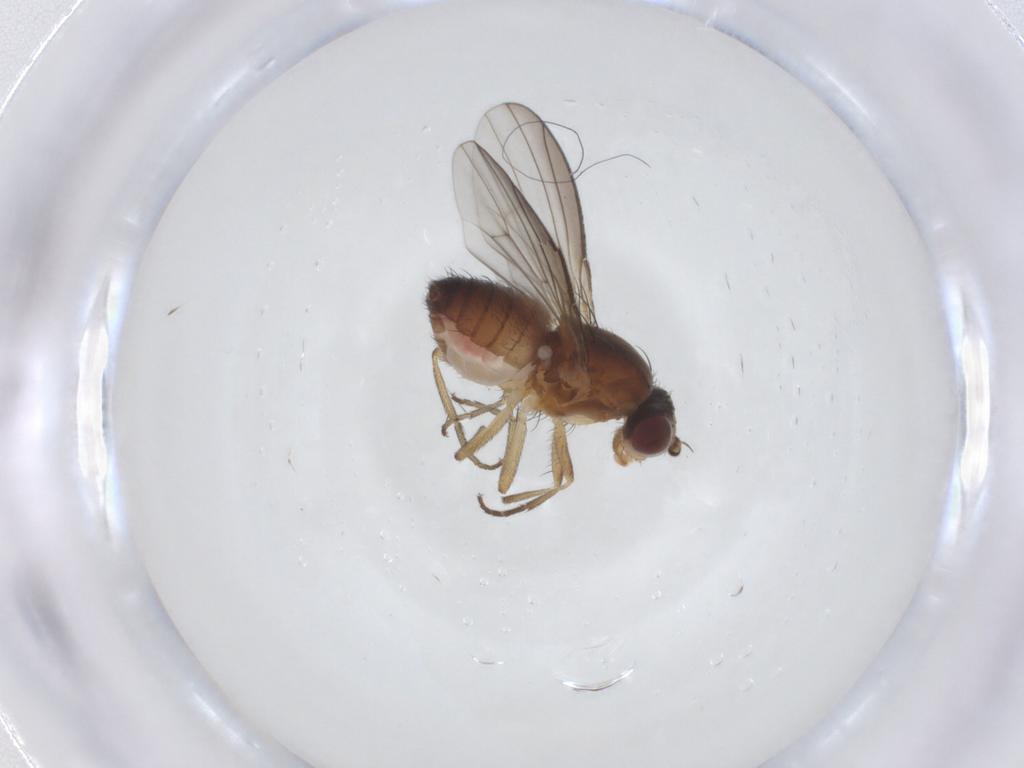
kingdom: Animalia
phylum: Arthropoda
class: Insecta
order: Diptera
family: Heleomyzidae
